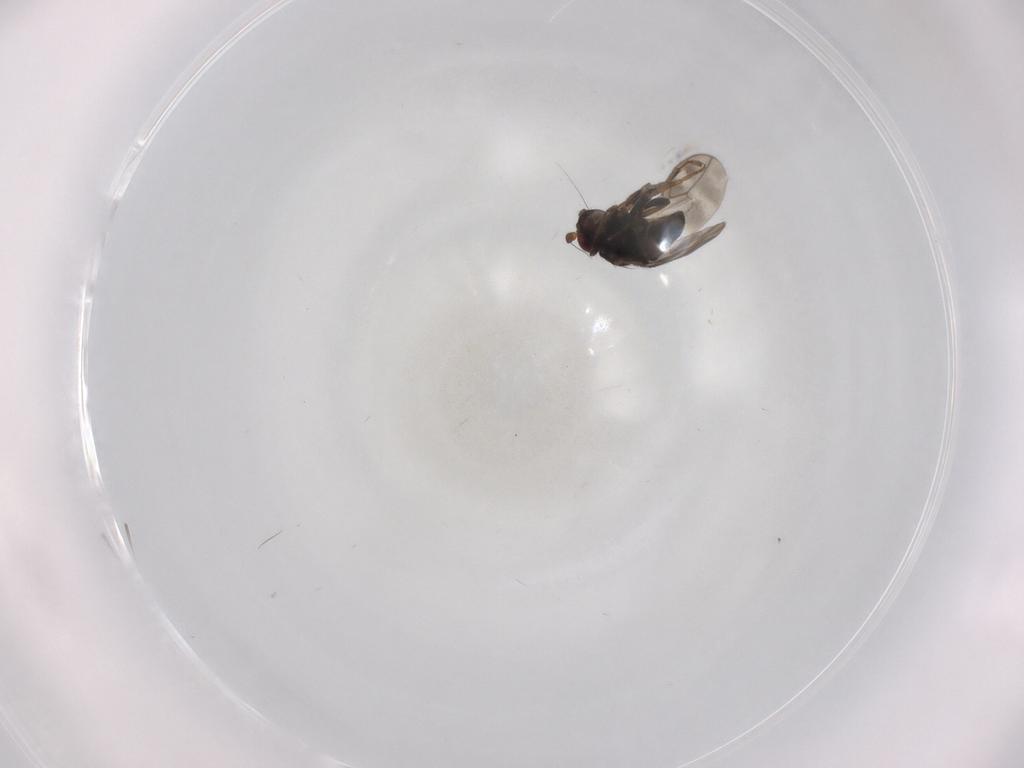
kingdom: Animalia
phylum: Arthropoda
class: Insecta
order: Diptera
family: Sphaeroceridae
